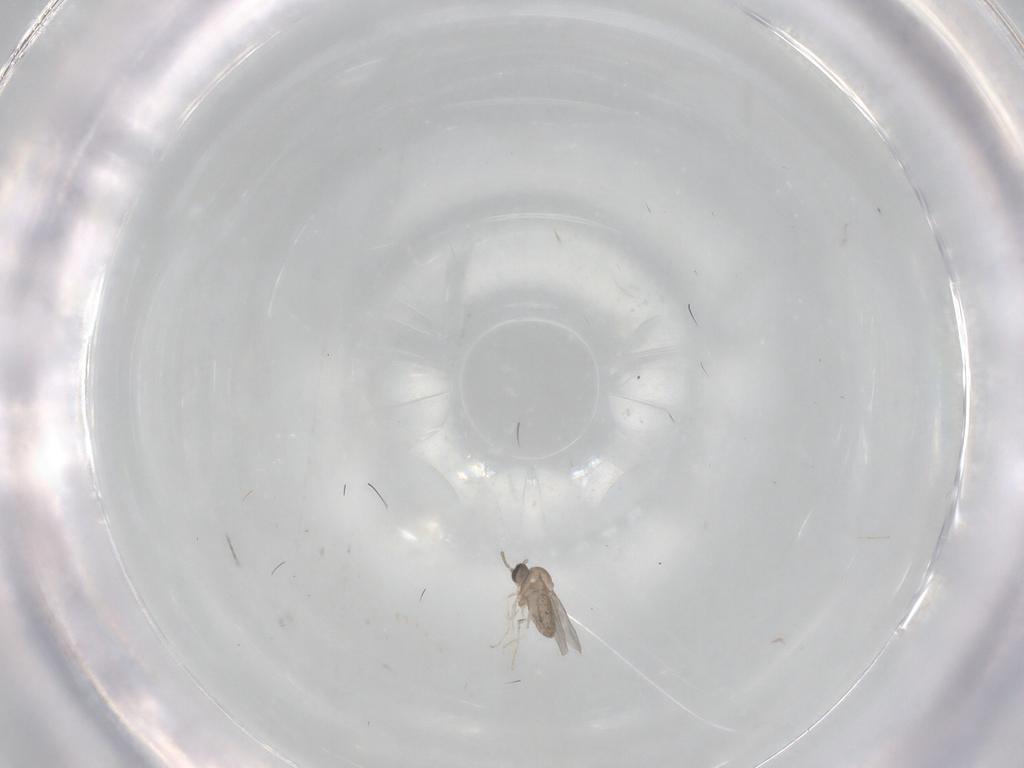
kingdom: Animalia
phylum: Arthropoda
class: Insecta
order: Diptera
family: Cecidomyiidae
